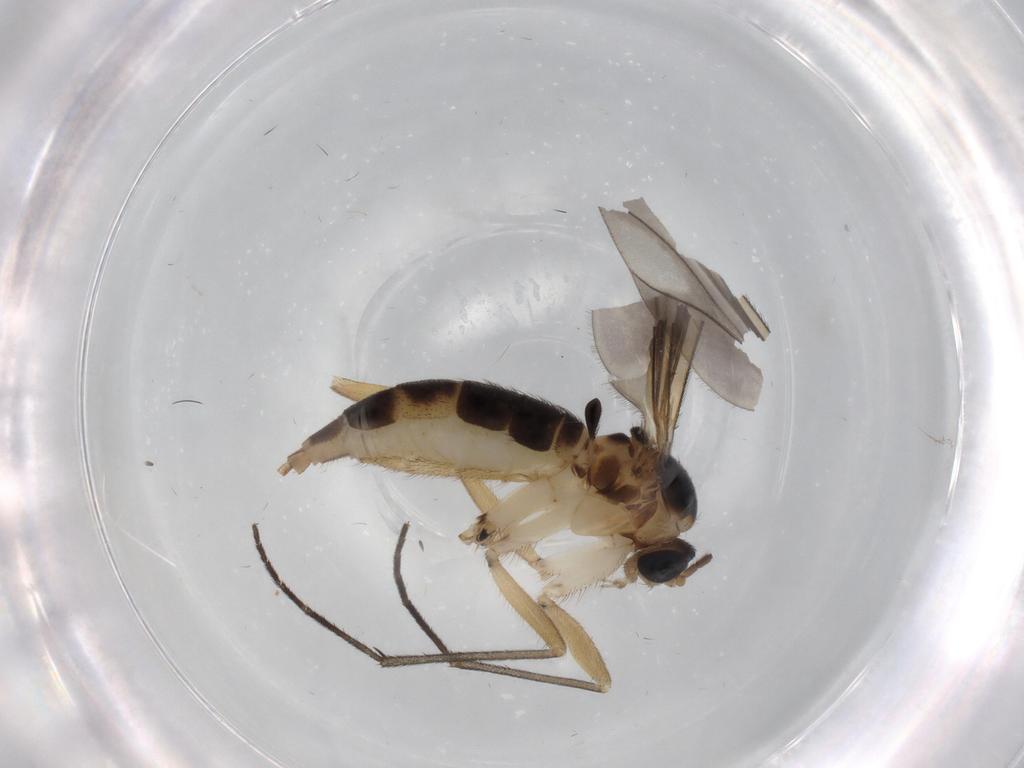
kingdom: Animalia
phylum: Arthropoda
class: Insecta
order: Diptera
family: Sciaridae
